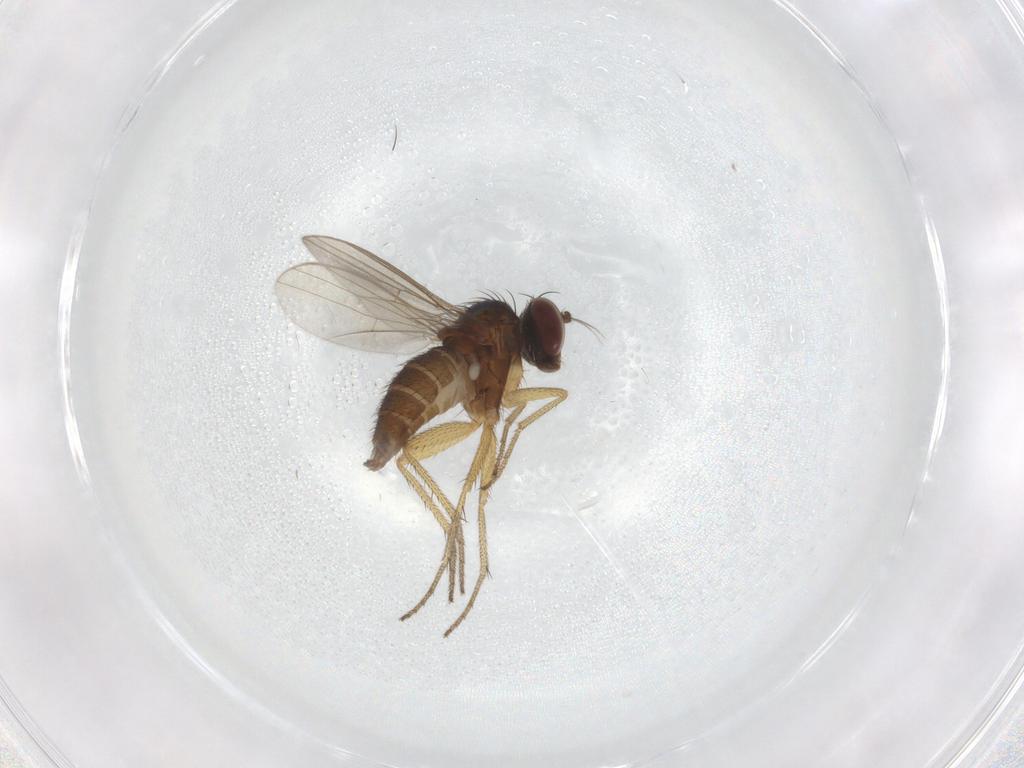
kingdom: Animalia
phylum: Arthropoda
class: Insecta
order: Diptera
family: Dolichopodidae
